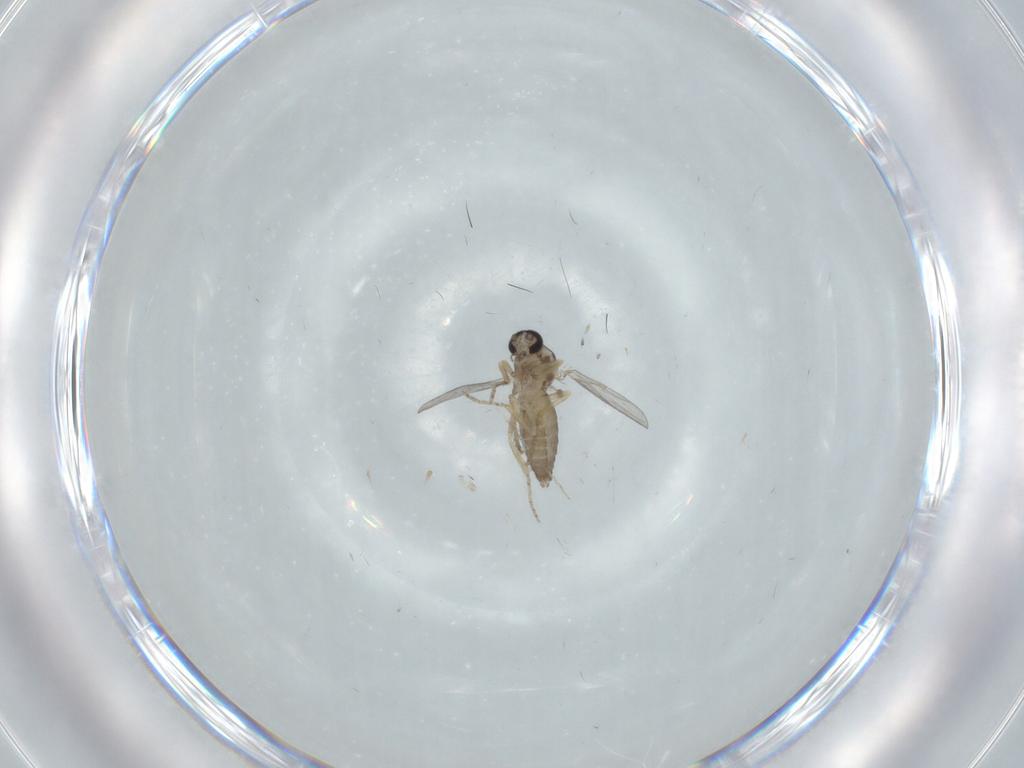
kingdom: Animalia
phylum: Arthropoda
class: Insecta
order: Diptera
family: Ceratopogonidae
